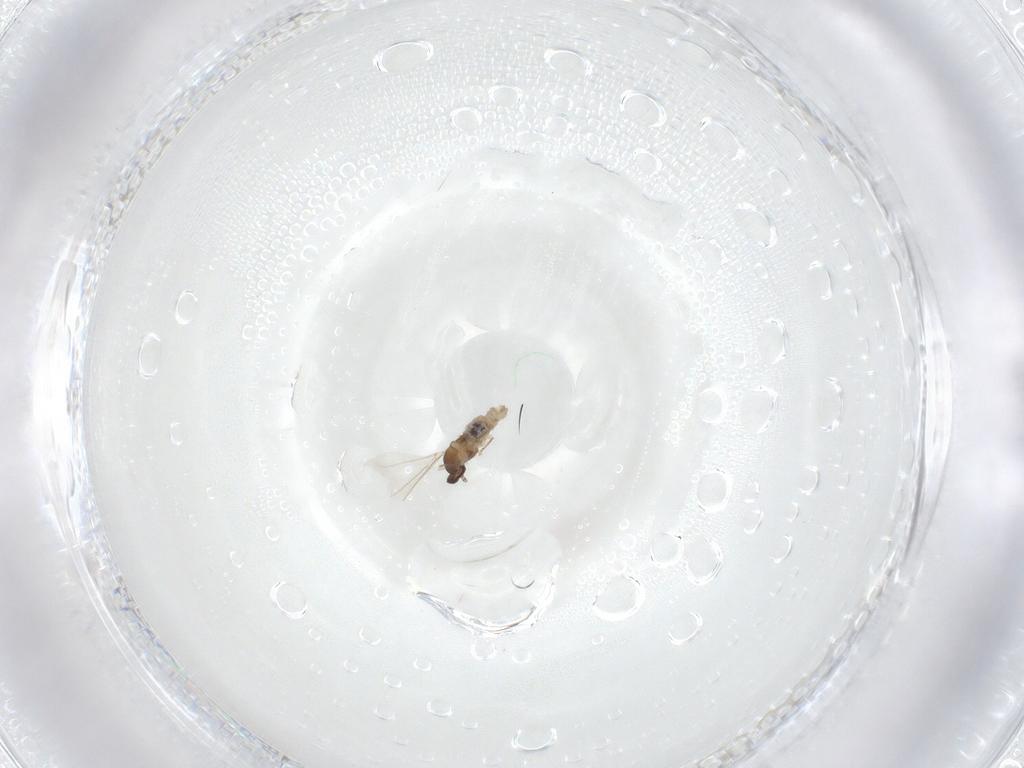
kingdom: Animalia
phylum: Arthropoda
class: Insecta
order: Diptera
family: Cecidomyiidae
